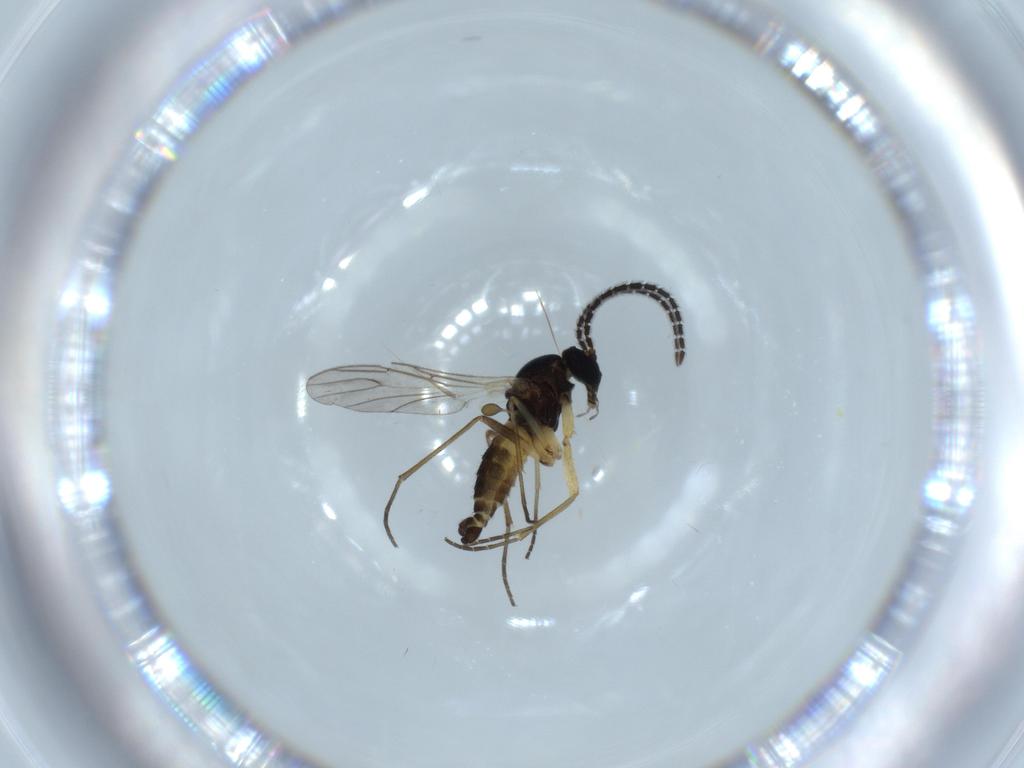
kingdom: Animalia
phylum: Arthropoda
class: Insecta
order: Diptera
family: Sciaridae
